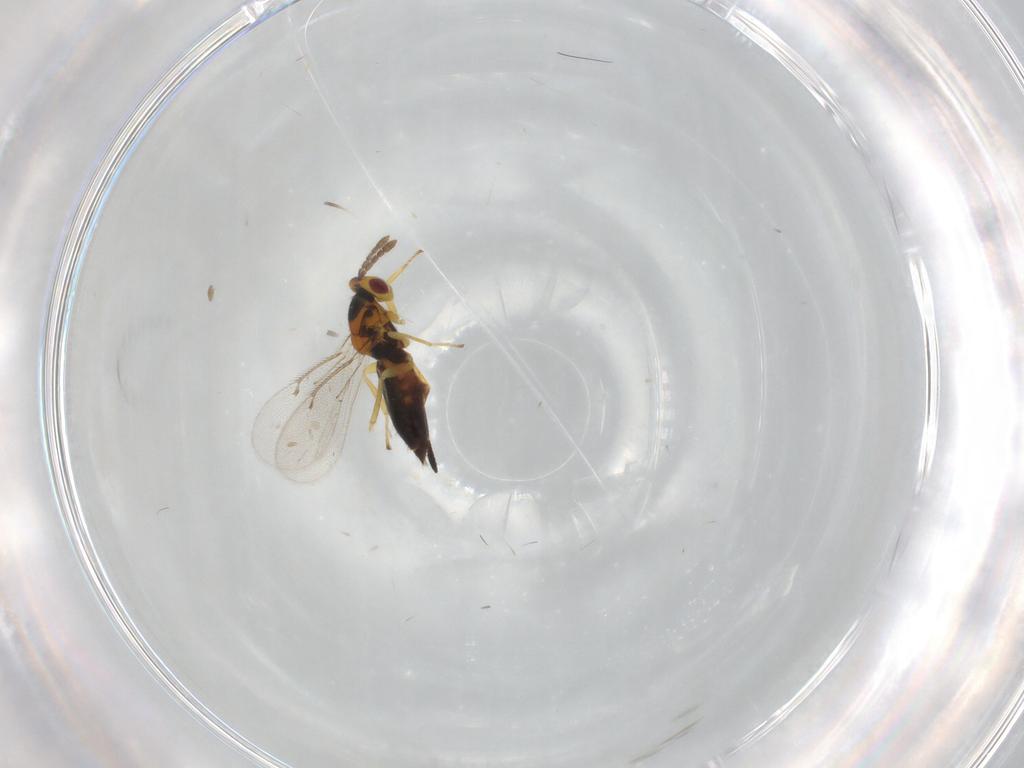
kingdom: Animalia
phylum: Arthropoda
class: Insecta
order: Hymenoptera
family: Eulophidae
